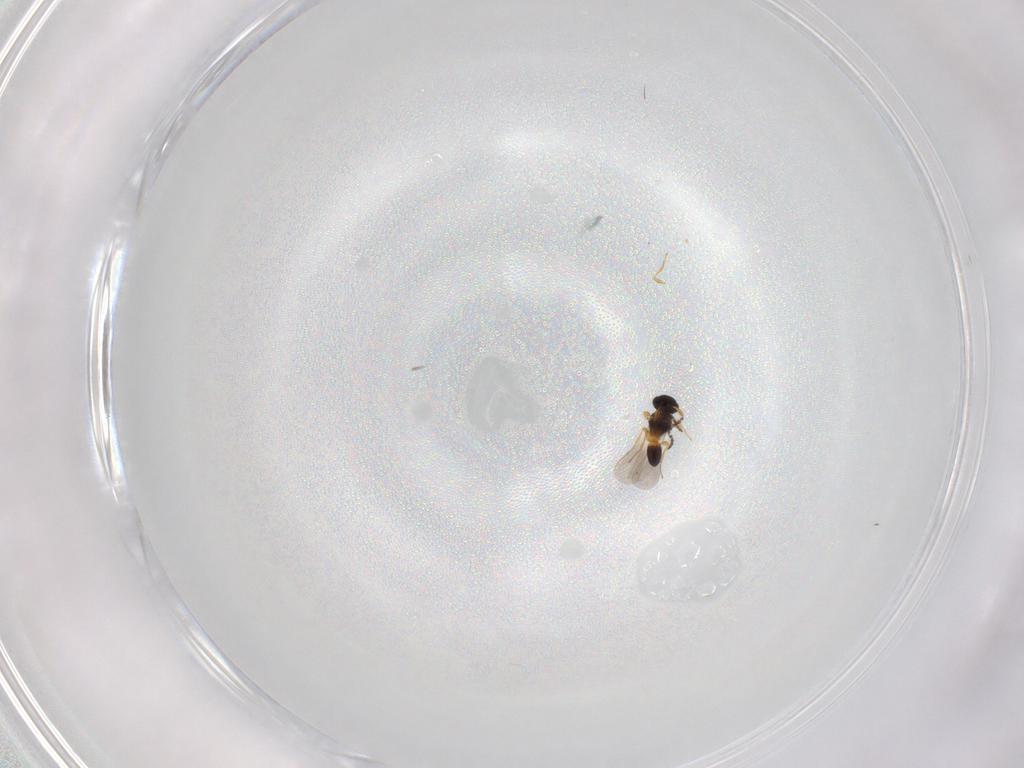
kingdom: Animalia
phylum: Arthropoda
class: Insecta
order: Hymenoptera
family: Platygastridae
